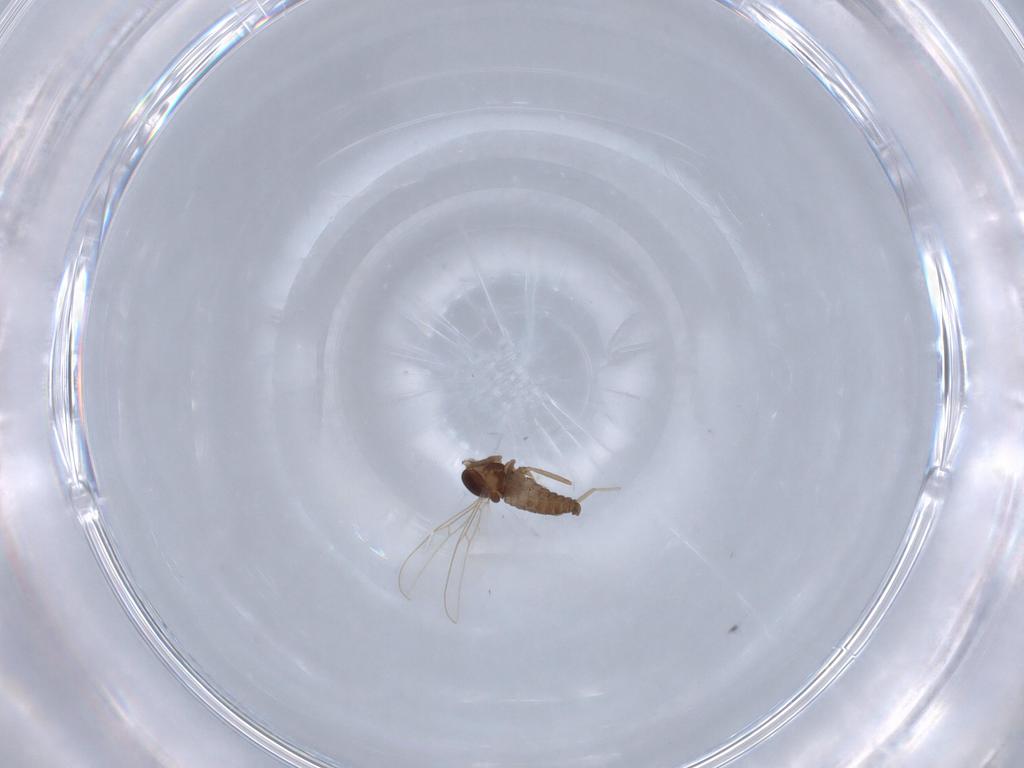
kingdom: Animalia
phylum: Arthropoda
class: Insecta
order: Diptera
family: Cecidomyiidae
